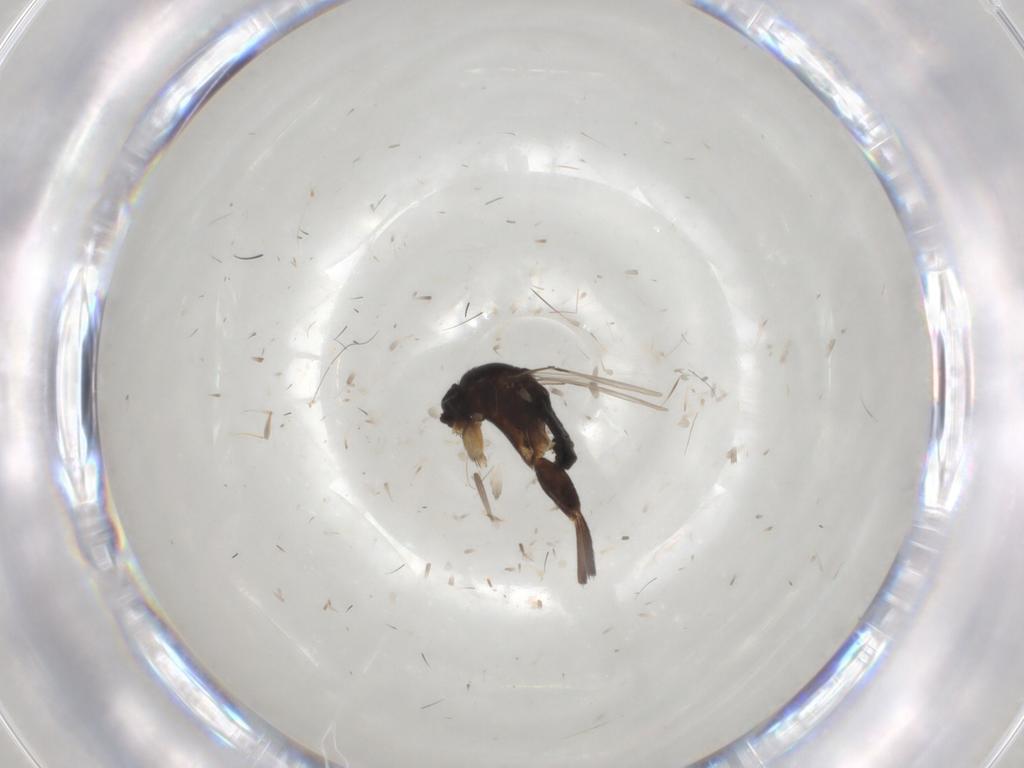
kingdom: Animalia
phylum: Arthropoda
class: Insecta
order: Diptera
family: Phoridae
